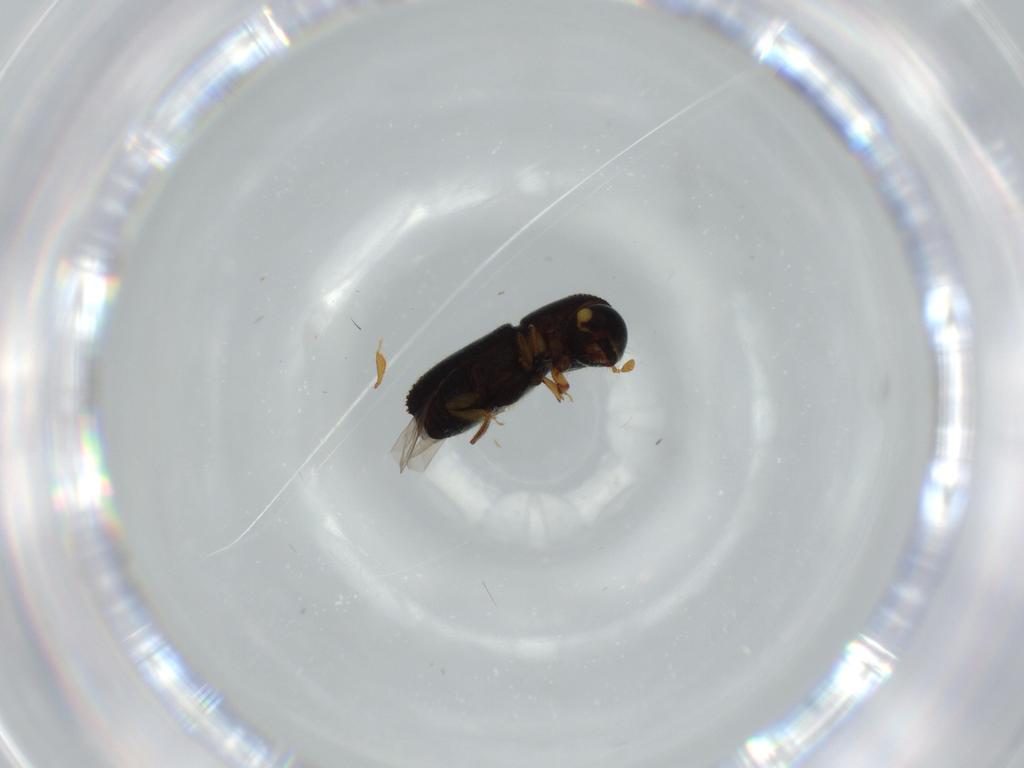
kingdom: Animalia
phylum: Arthropoda
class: Insecta
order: Coleoptera
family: Curculionidae
